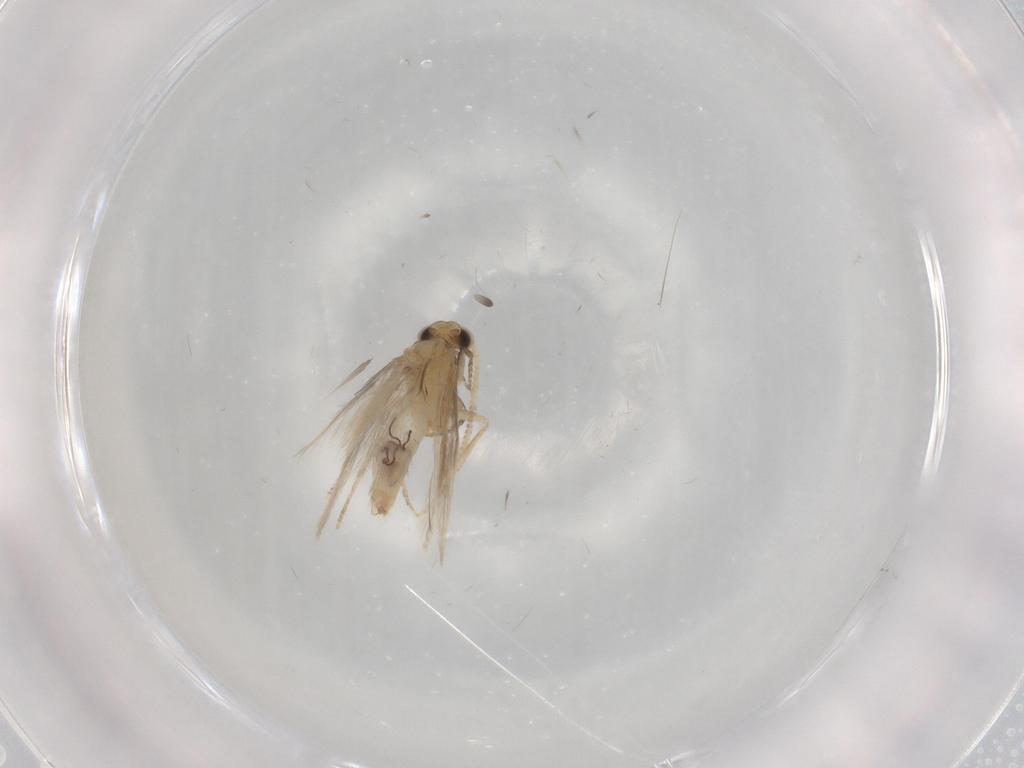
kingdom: Animalia
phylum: Arthropoda
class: Insecta
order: Trichoptera
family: Hydroptilidae
